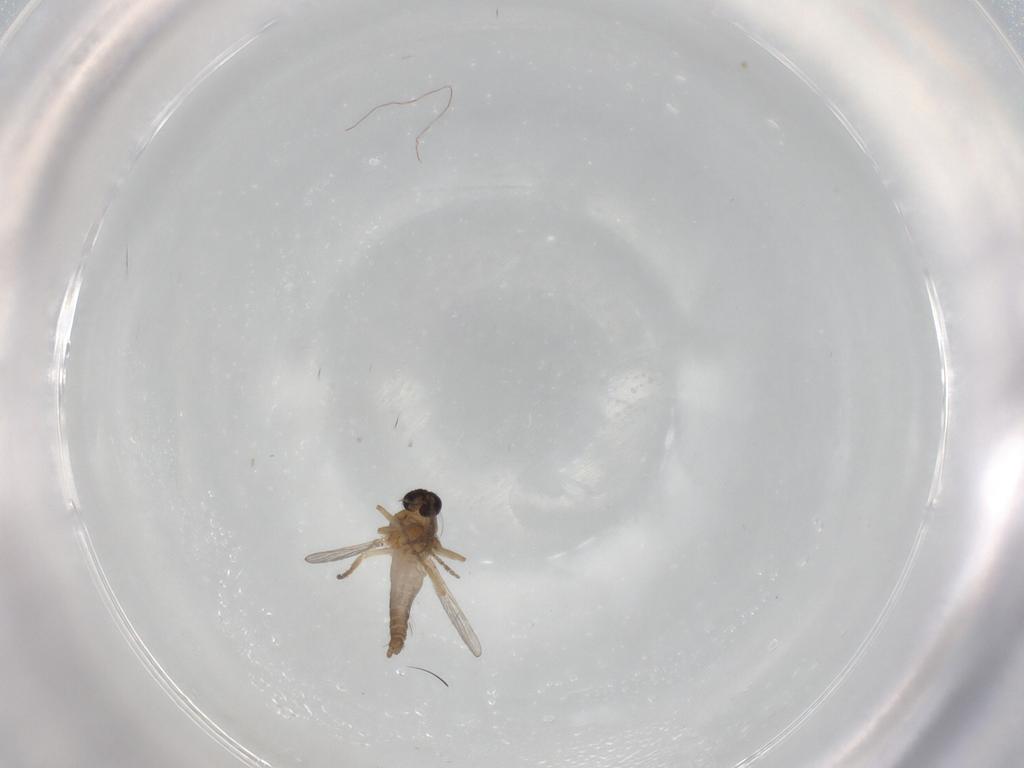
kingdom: Animalia
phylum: Arthropoda
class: Insecta
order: Diptera
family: Ceratopogonidae
